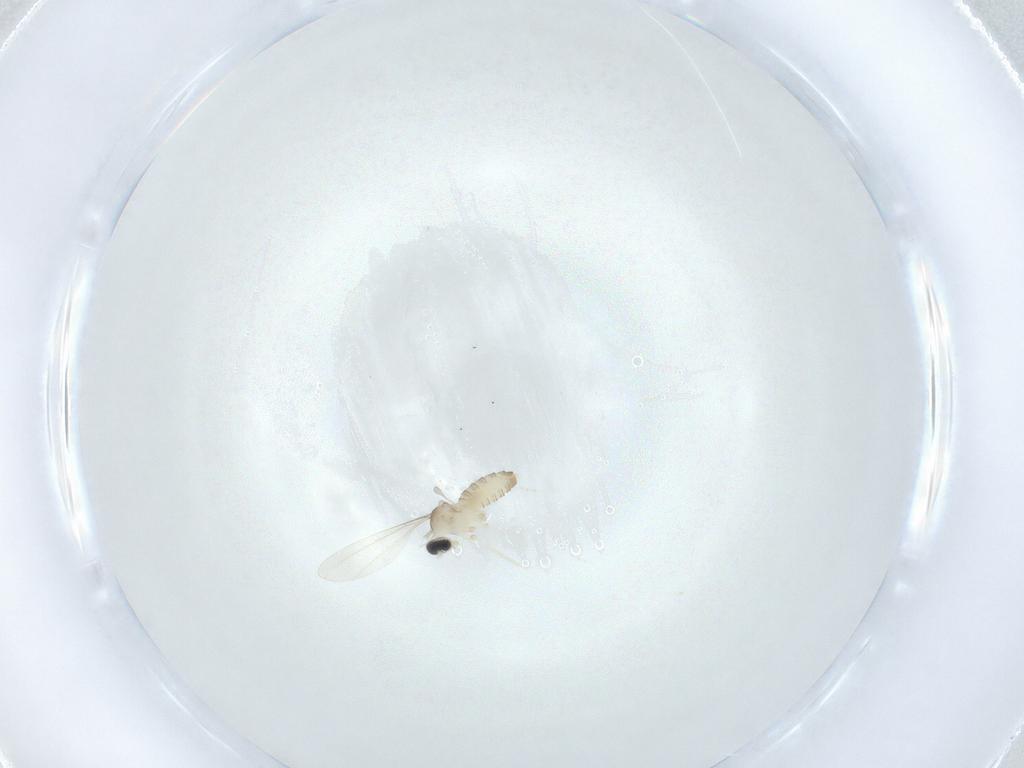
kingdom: Animalia
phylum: Arthropoda
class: Insecta
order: Diptera
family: Cecidomyiidae
